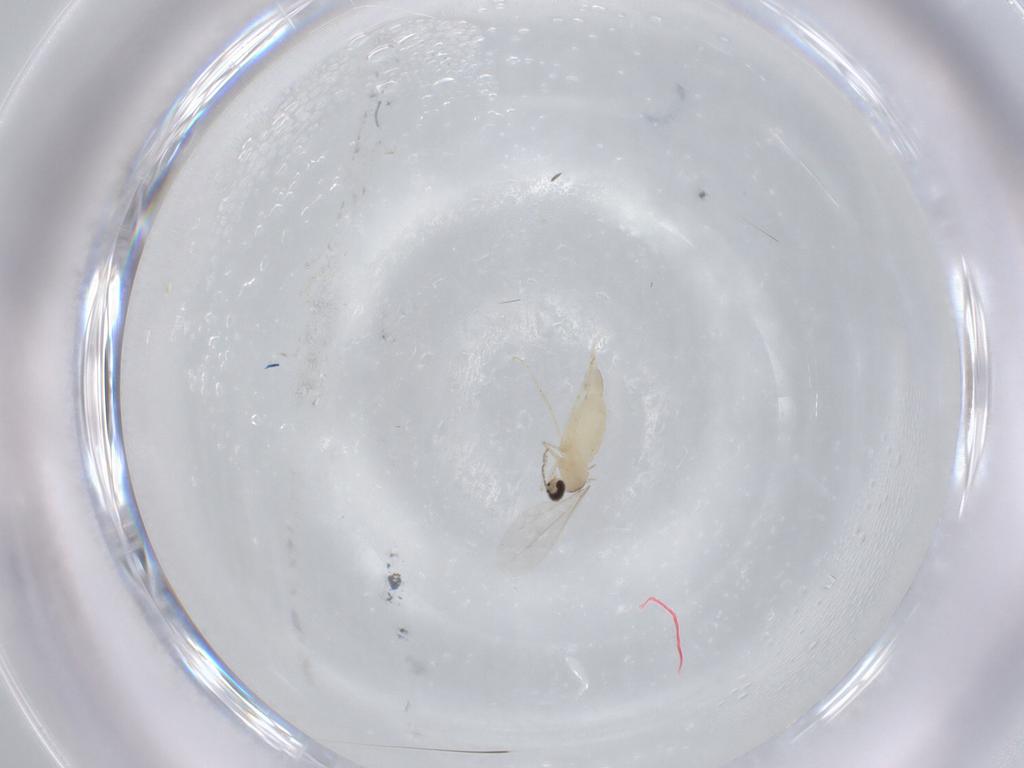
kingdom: Animalia
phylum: Arthropoda
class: Insecta
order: Diptera
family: Cecidomyiidae
